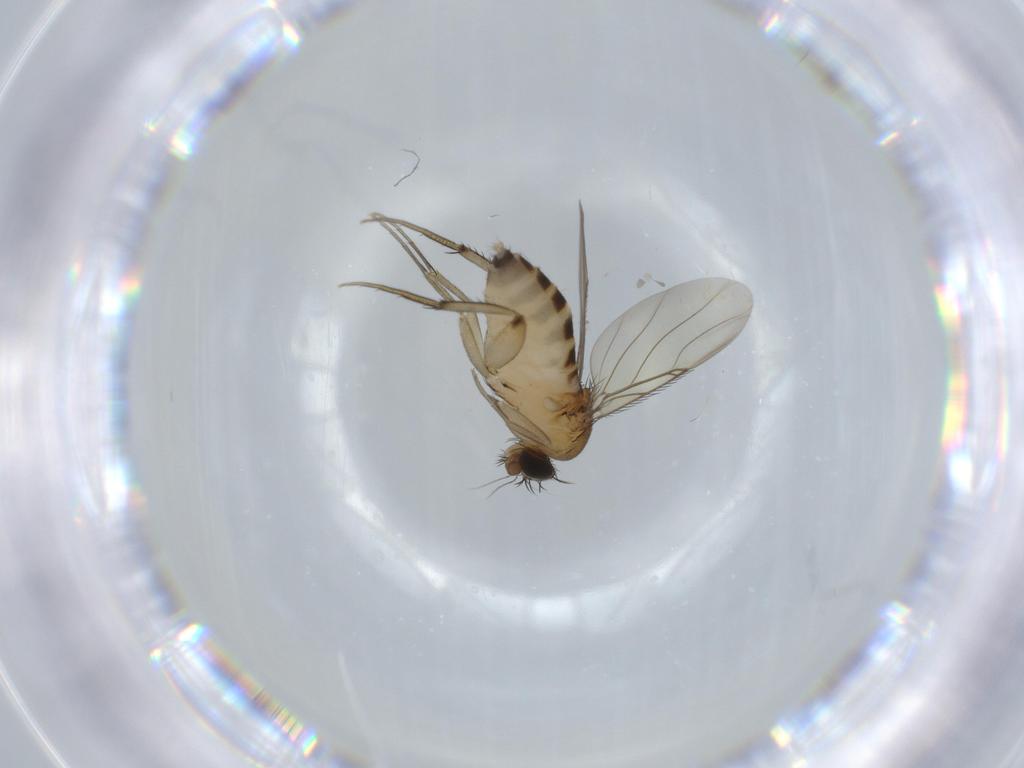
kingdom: Animalia
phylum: Arthropoda
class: Insecta
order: Diptera
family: Phoridae
